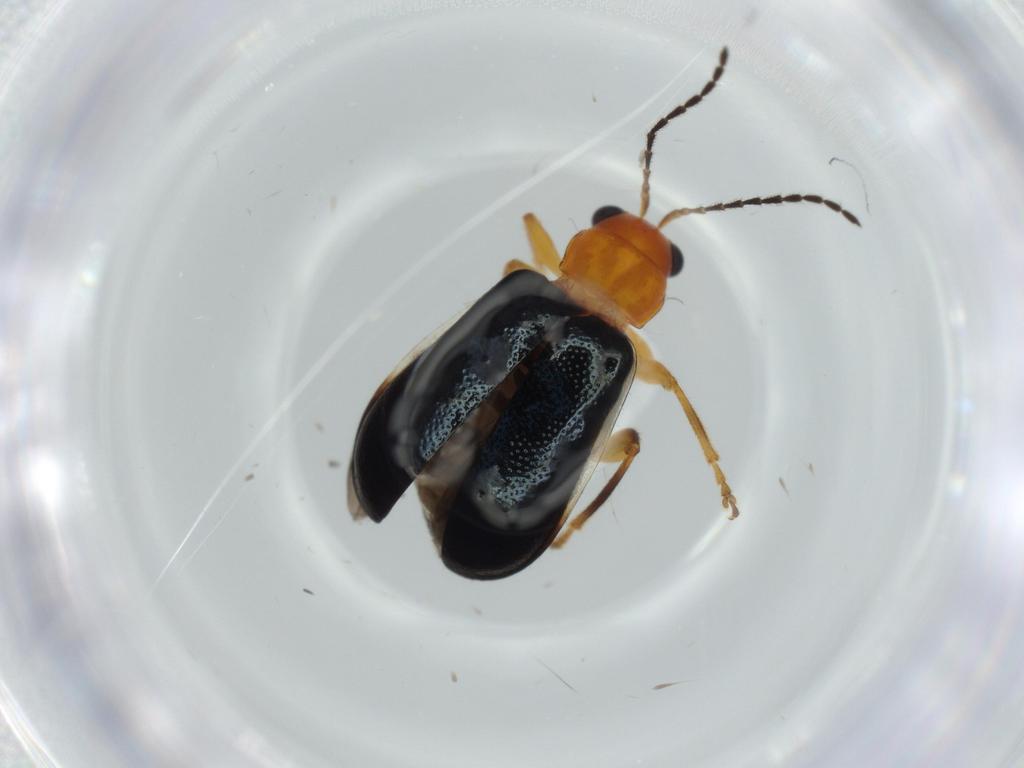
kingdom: Animalia
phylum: Arthropoda
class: Insecta
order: Coleoptera
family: Chrysomelidae
